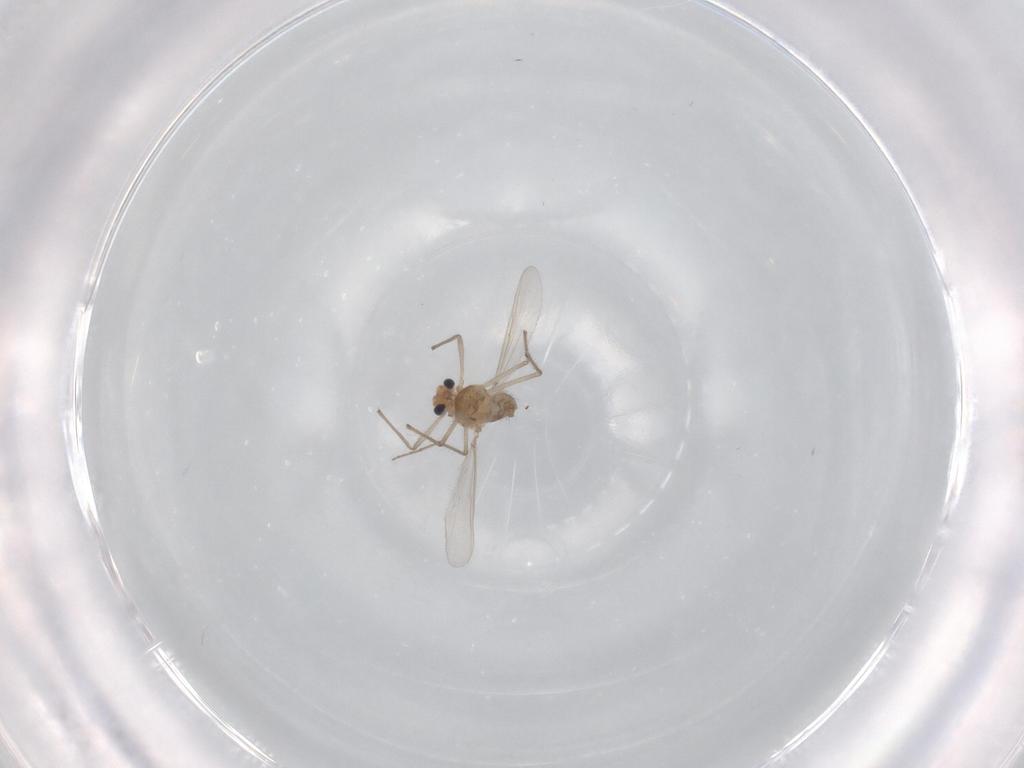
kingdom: Animalia
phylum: Arthropoda
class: Insecta
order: Diptera
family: Chironomidae
